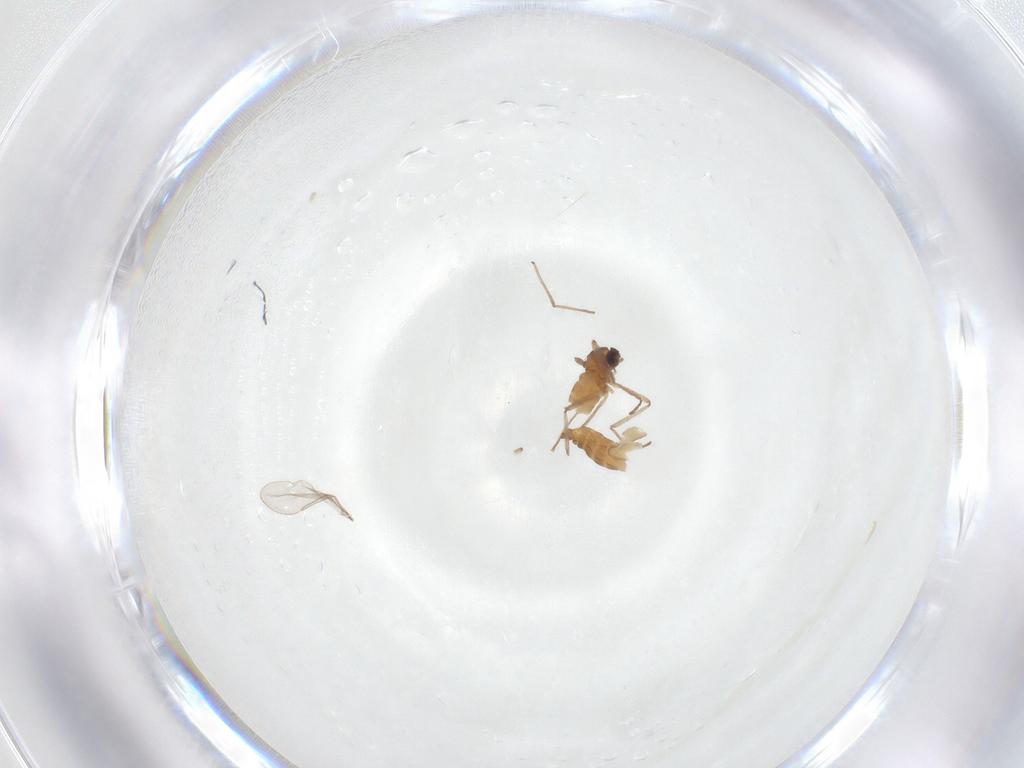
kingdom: Animalia
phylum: Arthropoda
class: Insecta
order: Diptera
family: Cecidomyiidae
